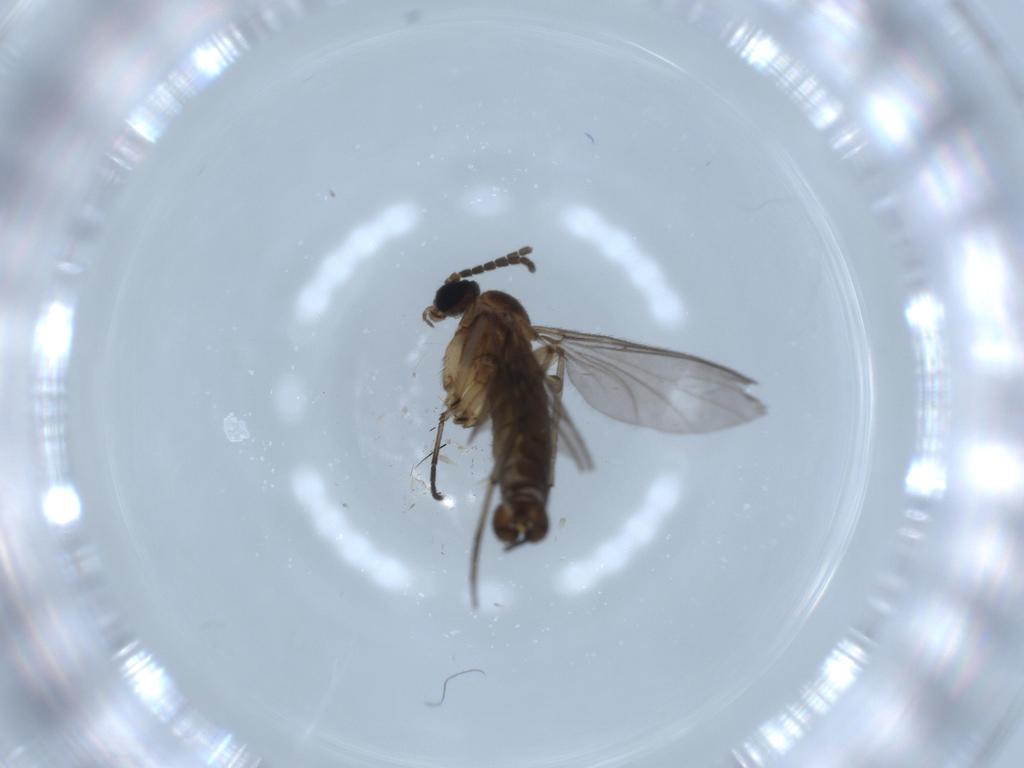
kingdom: Animalia
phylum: Arthropoda
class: Insecta
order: Diptera
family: Sciaridae
